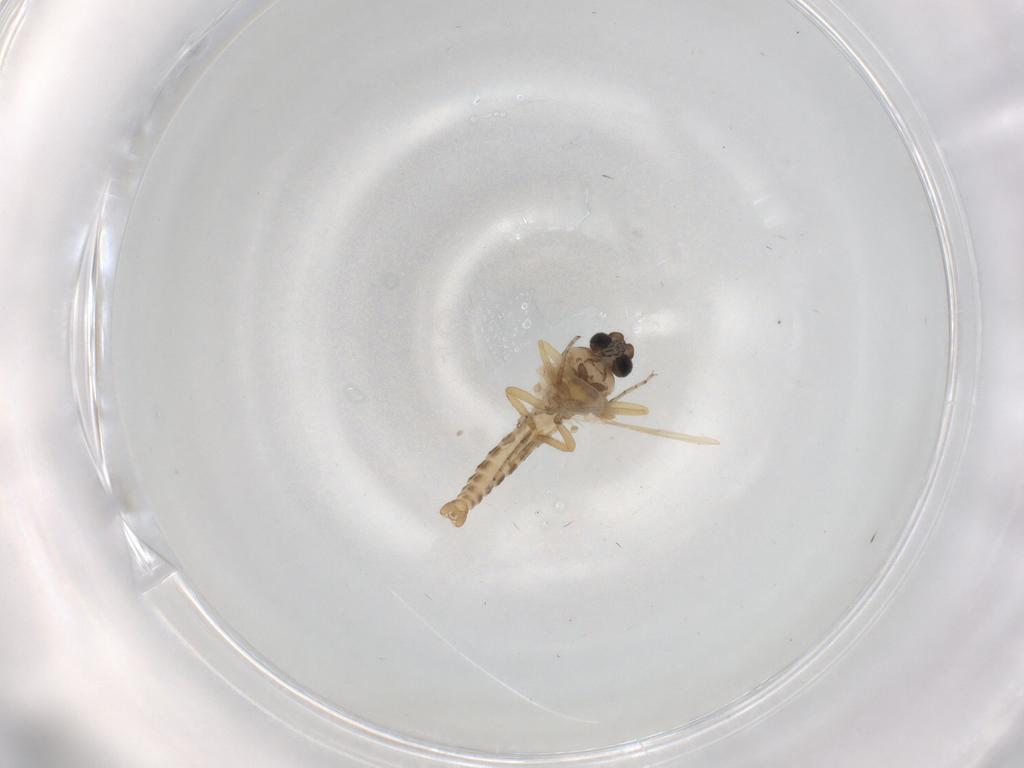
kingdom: Animalia
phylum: Arthropoda
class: Insecta
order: Diptera
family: Ceratopogonidae
